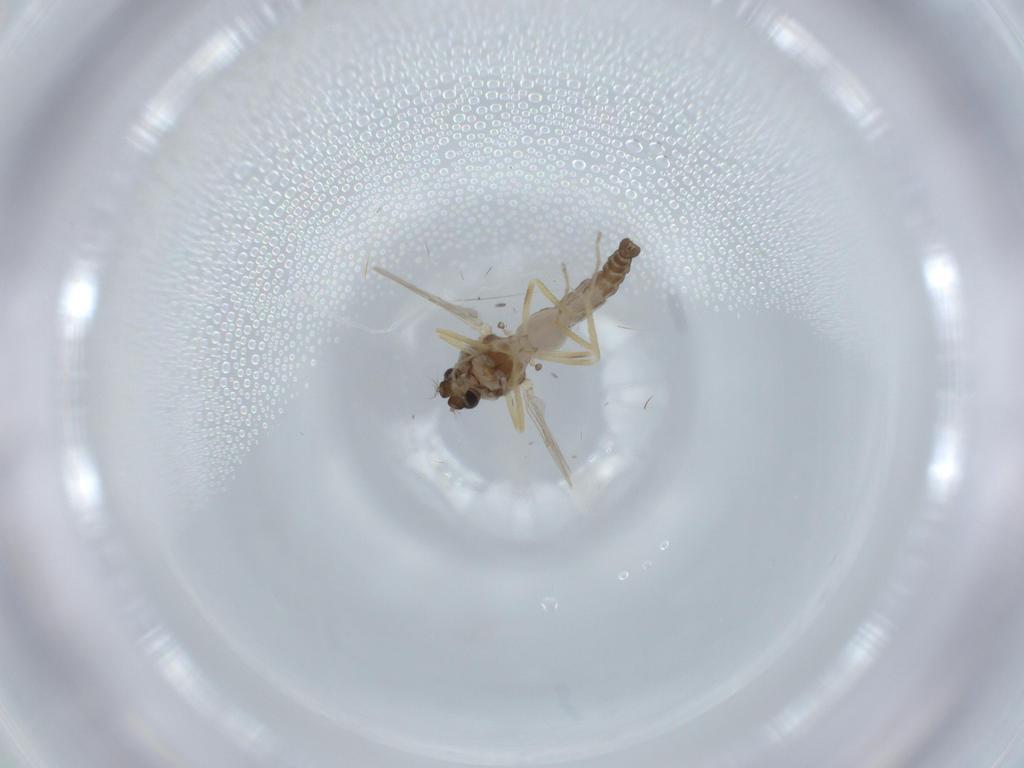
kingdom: Animalia
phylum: Arthropoda
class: Insecta
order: Diptera
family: Ceratopogonidae
